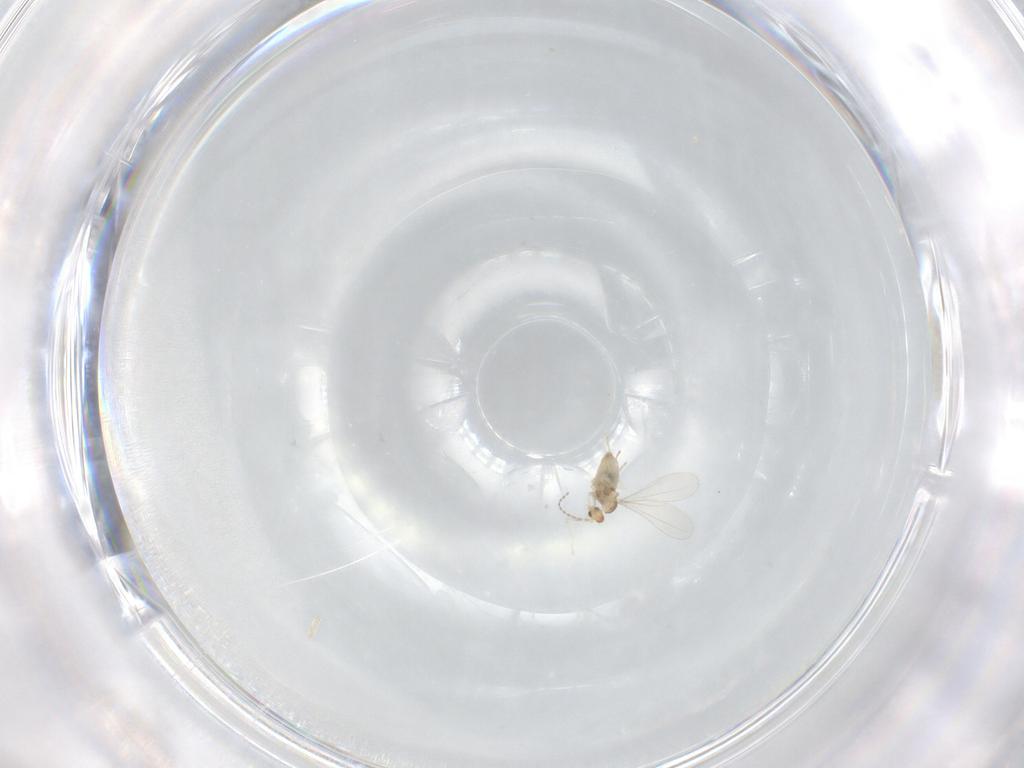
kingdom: Animalia
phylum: Arthropoda
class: Insecta
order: Diptera
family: Cecidomyiidae
